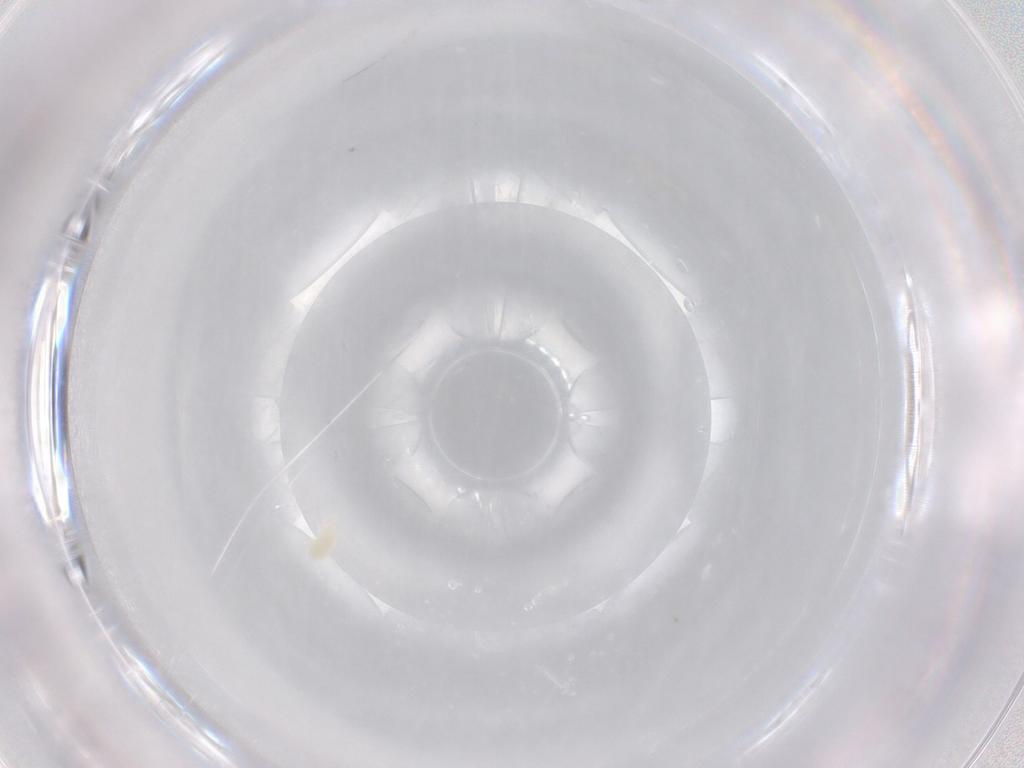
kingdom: Animalia
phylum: Arthropoda
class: Arachnida
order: Trombidiformes
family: Stigmaeidae
